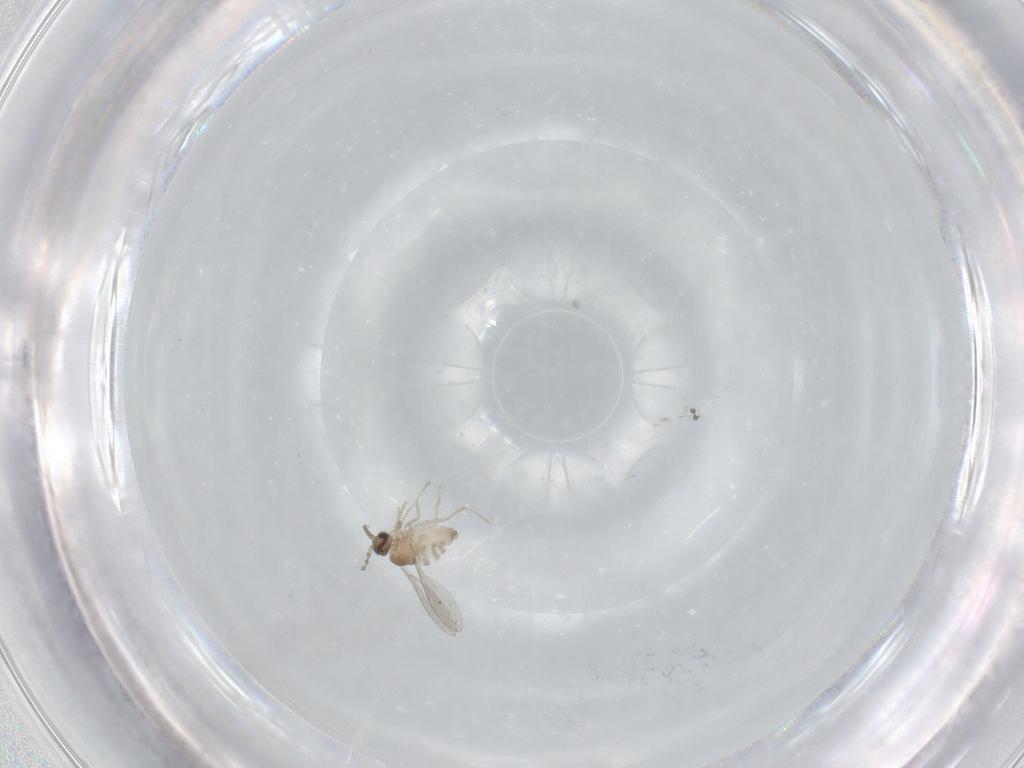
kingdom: Animalia
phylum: Arthropoda
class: Insecta
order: Diptera
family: Cecidomyiidae
